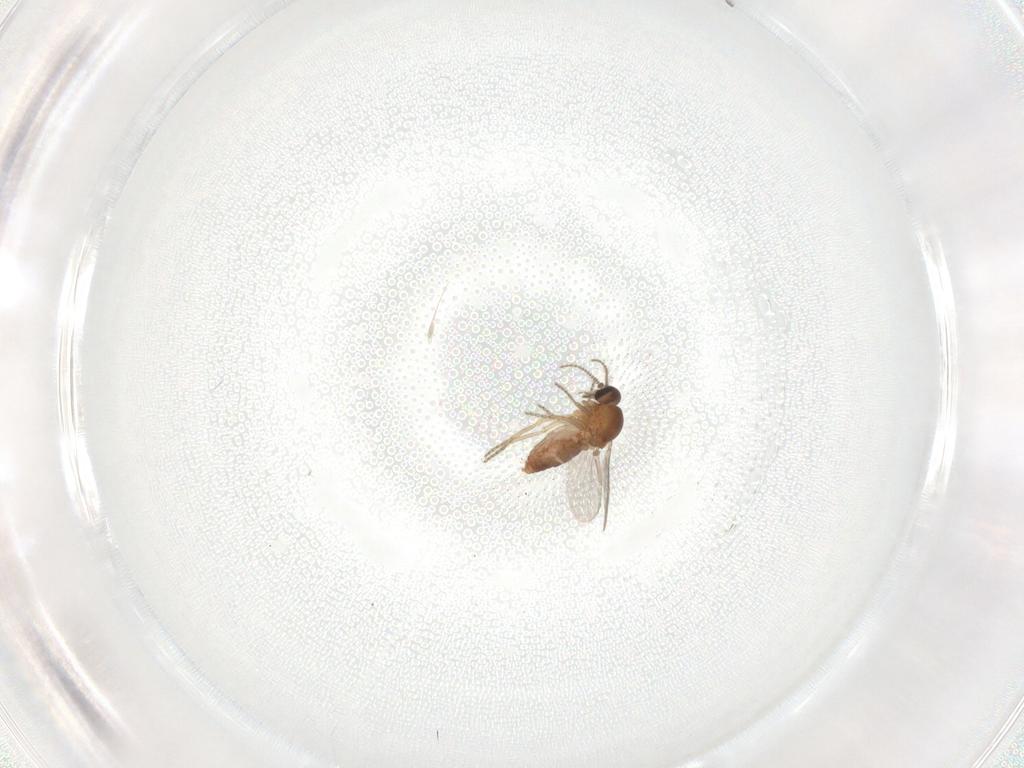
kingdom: Animalia
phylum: Arthropoda
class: Insecta
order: Diptera
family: Ceratopogonidae
